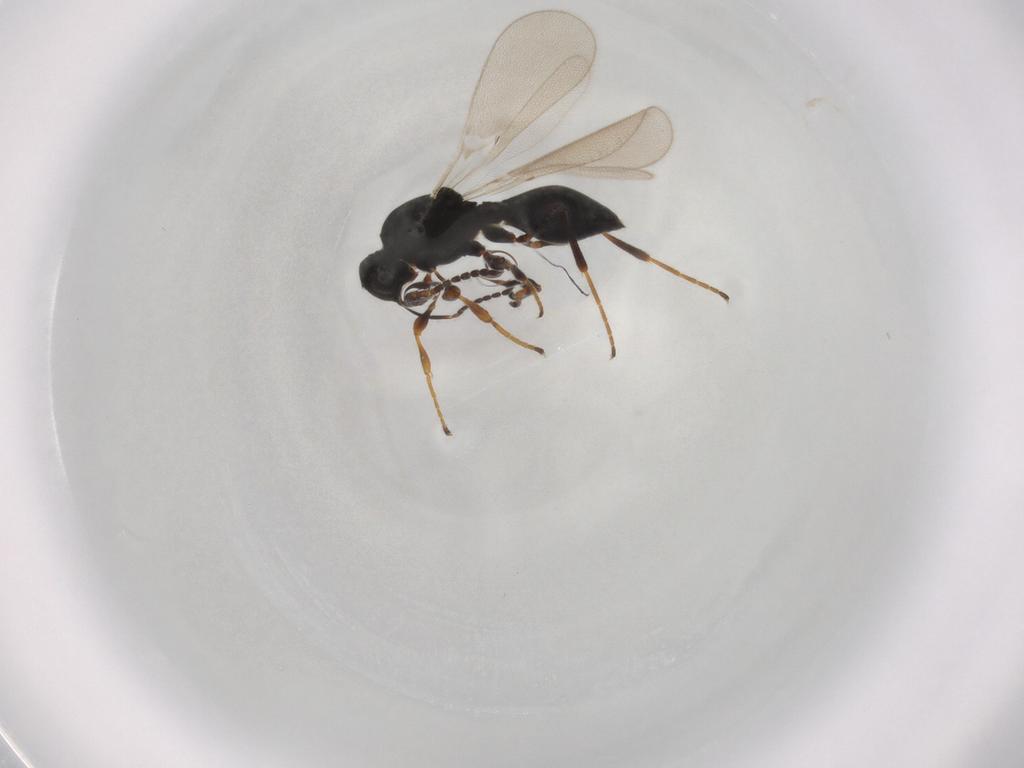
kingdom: Animalia
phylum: Arthropoda
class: Insecta
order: Diptera
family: Mythicomyiidae
